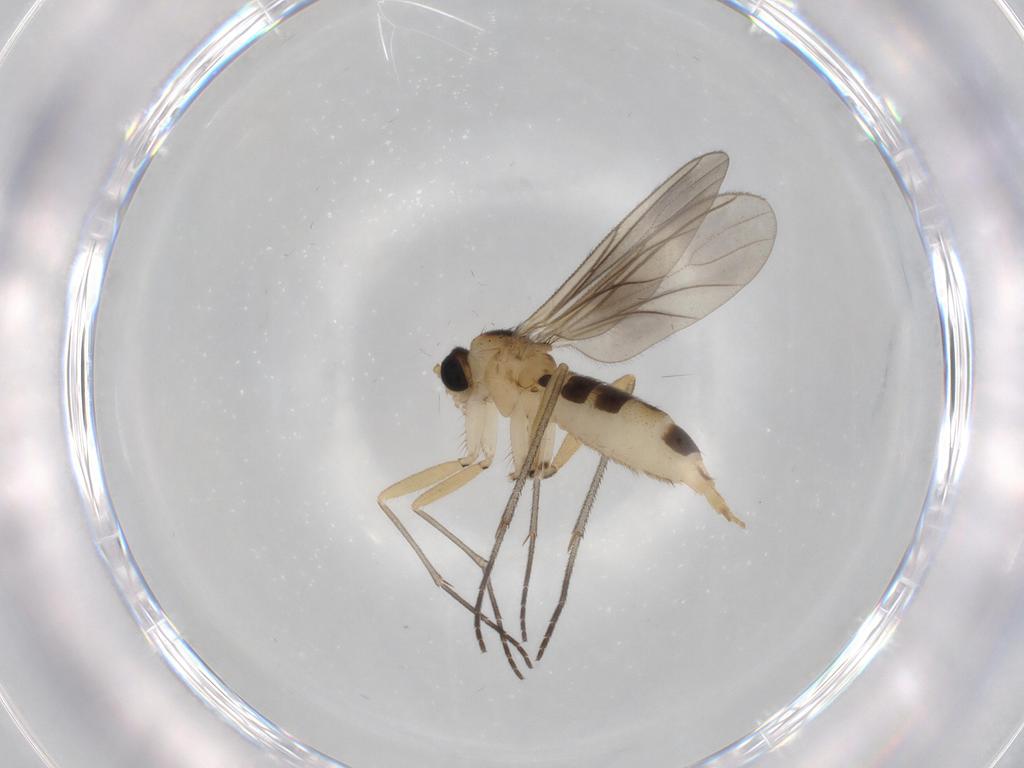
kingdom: Animalia
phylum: Arthropoda
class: Insecta
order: Diptera
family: Sciaridae
